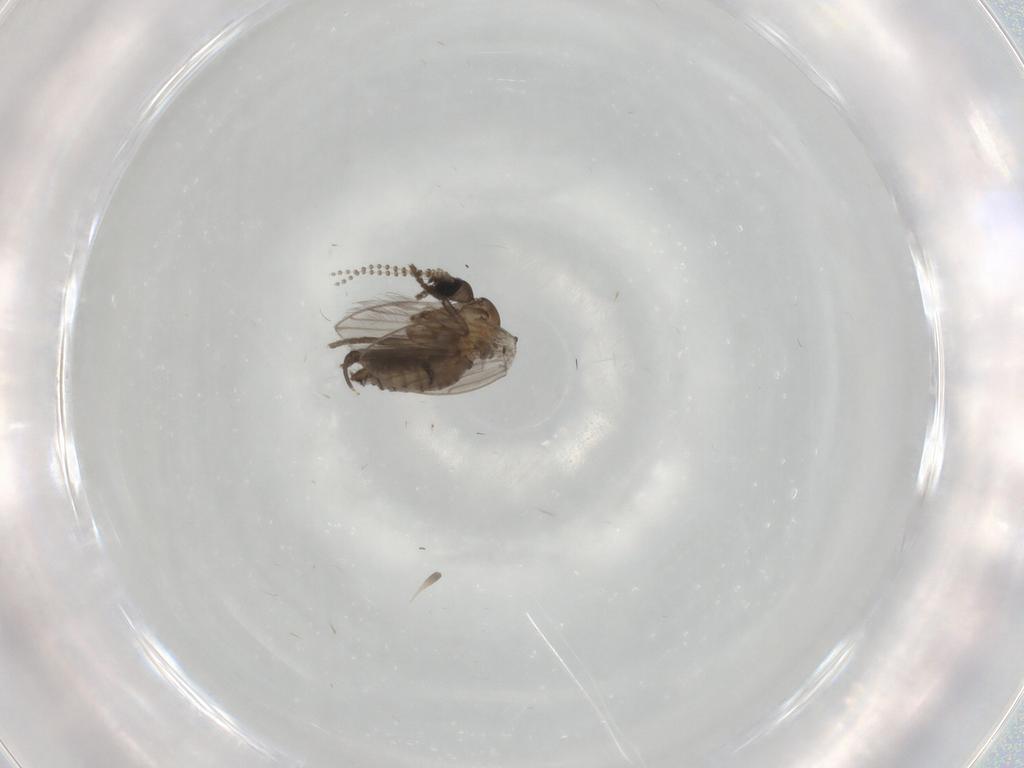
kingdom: Animalia
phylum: Arthropoda
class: Insecta
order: Diptera
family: Psychodidae
